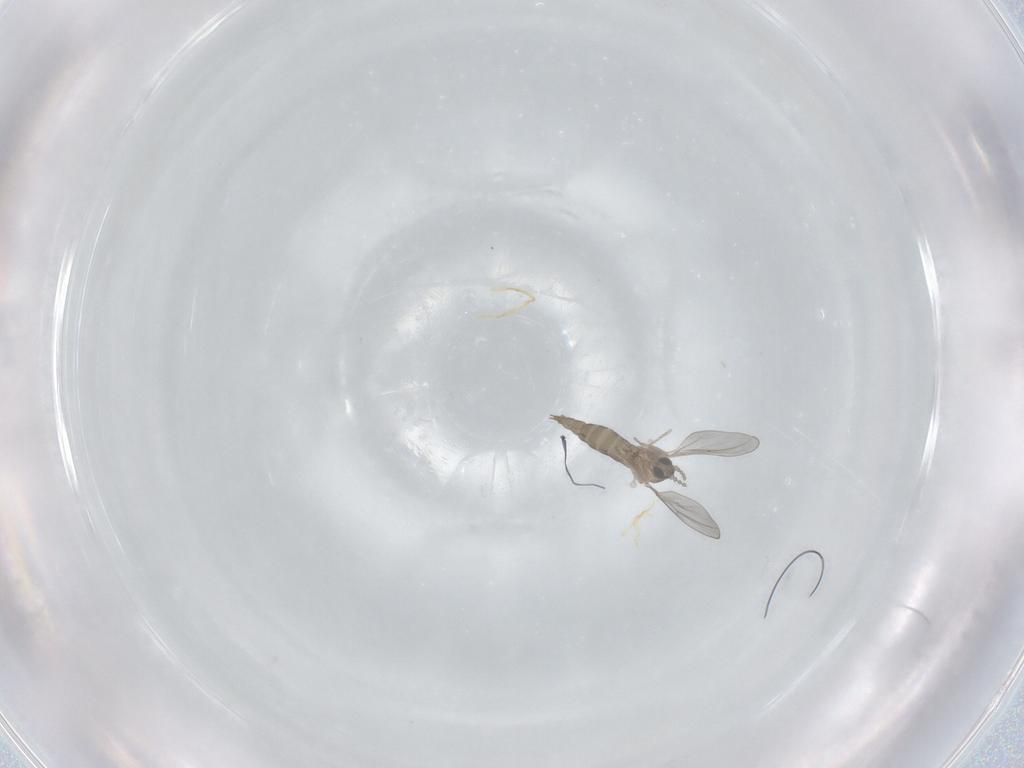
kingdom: Animalia
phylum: Arthropoda
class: Insecta
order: Diptera
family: Cecidomyiidae
